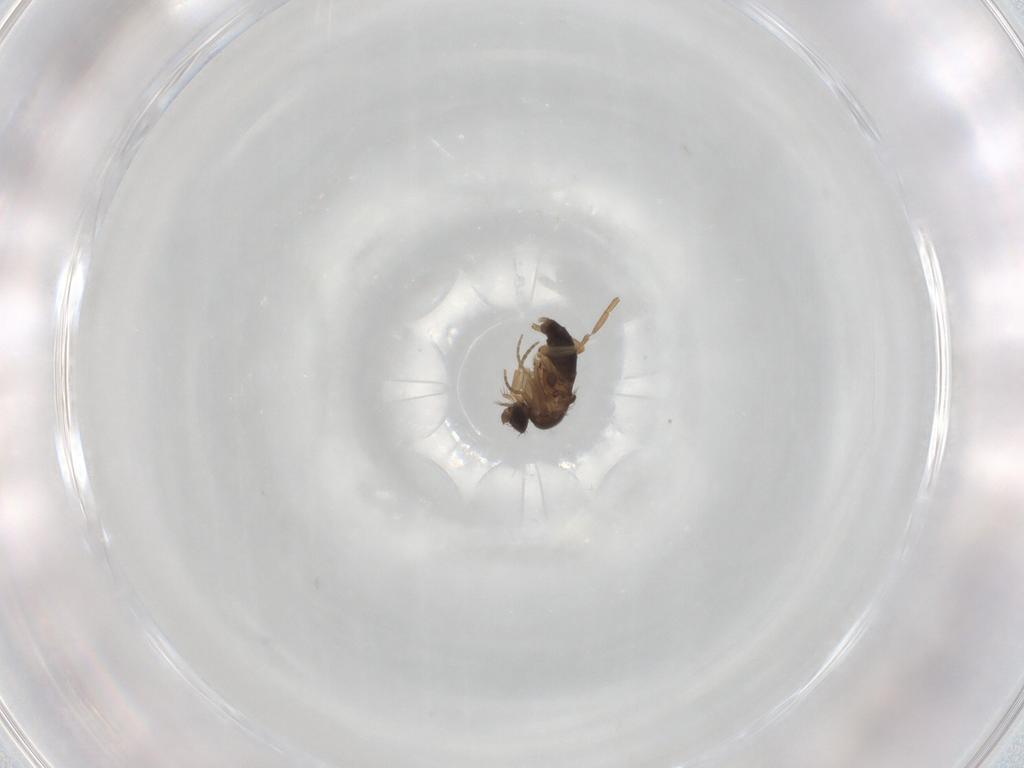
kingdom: Animalia
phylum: Arthropoda
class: Insecta
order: Diptera
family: Phoridae
